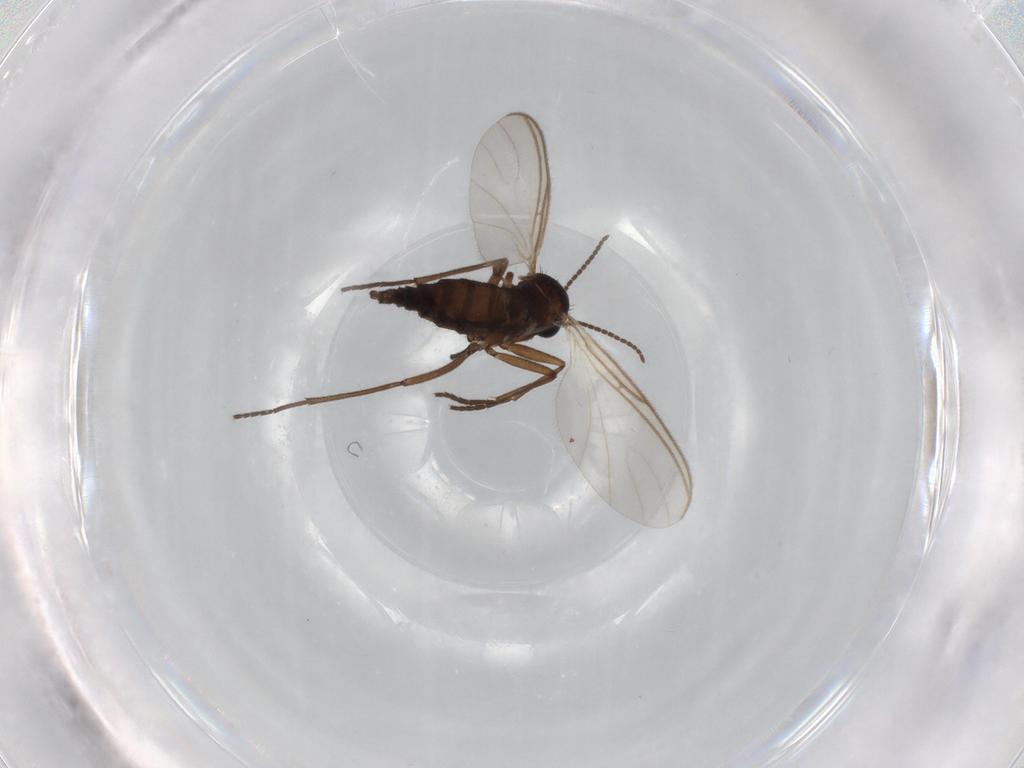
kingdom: Animalia
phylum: Arthropoda
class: Insecta
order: Diptera
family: Sciaridae
